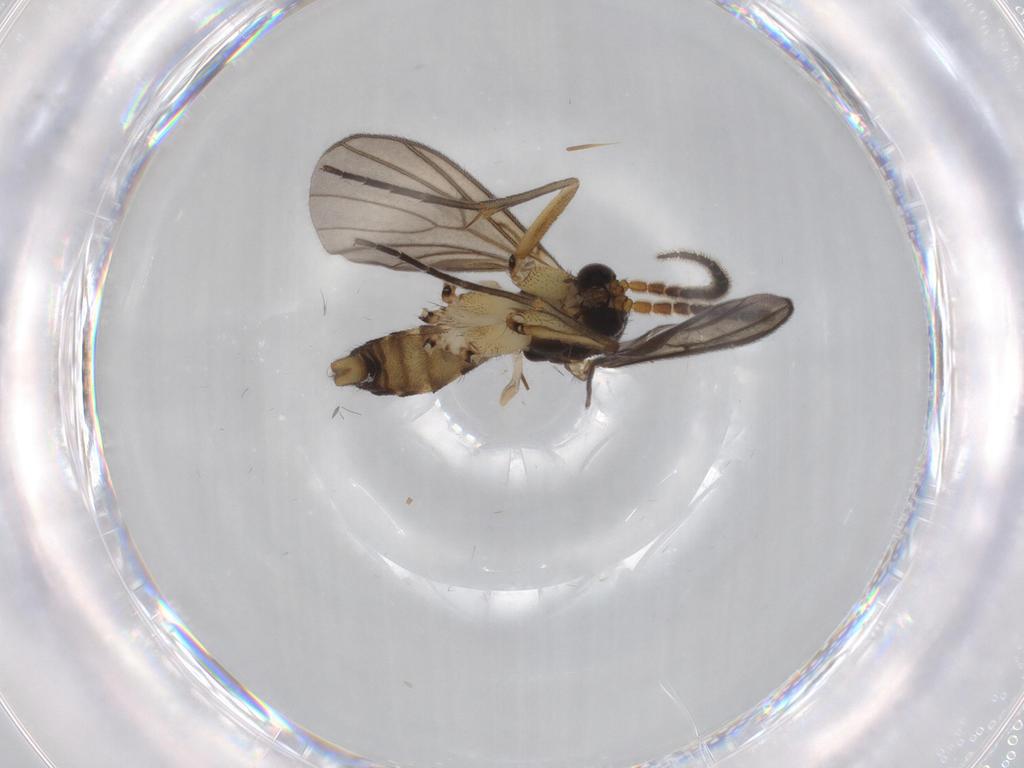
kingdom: Animalia
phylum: Arthropoda
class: Insecta
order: Diptera
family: Mycetophilidae
